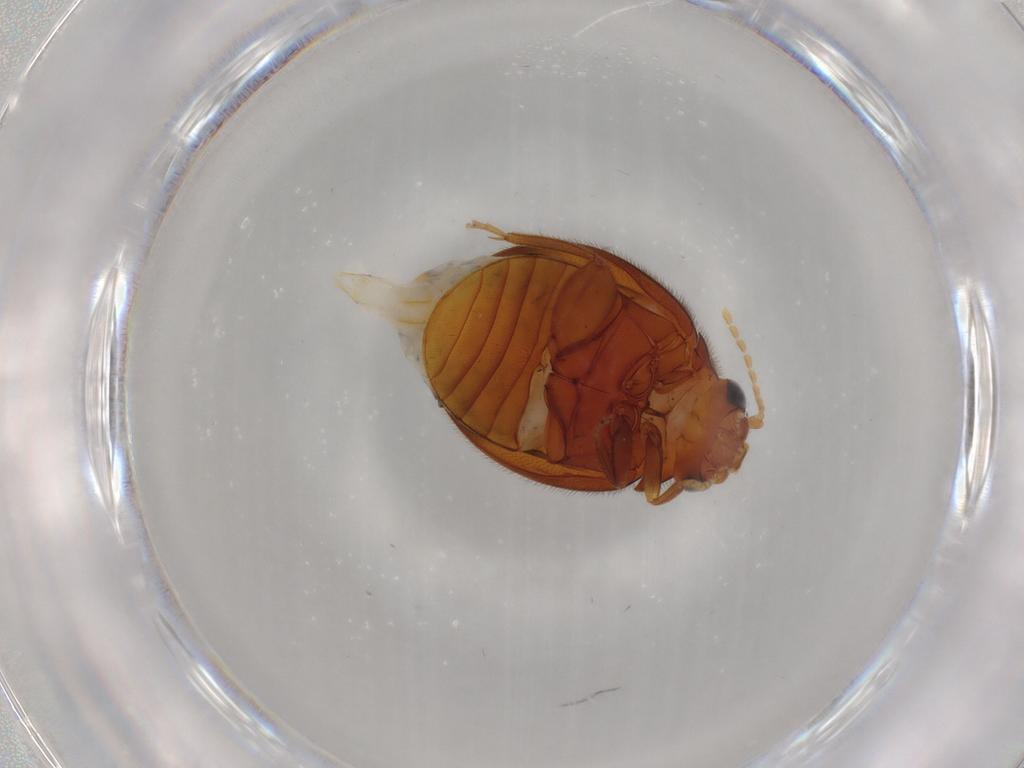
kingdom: Animalia
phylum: Arthropoda
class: Insecta
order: Coleoptera
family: Scirtidae
